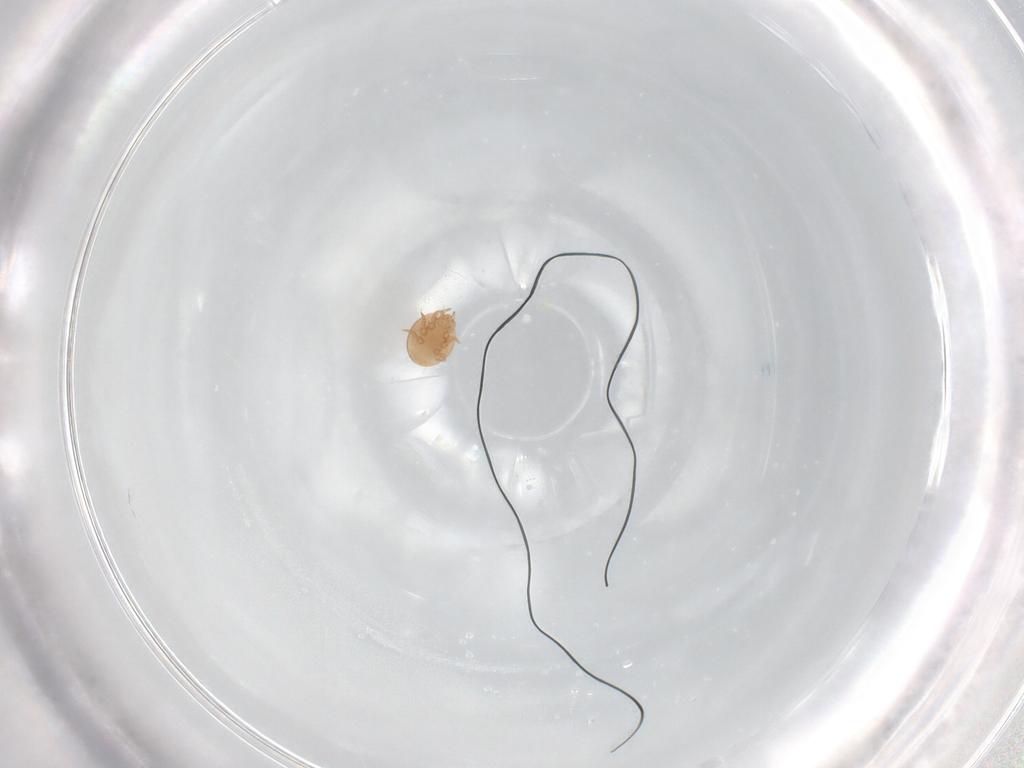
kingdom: Animalia
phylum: Arthropoda
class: Arachnida
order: Mesostigmata
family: Trematuridae
